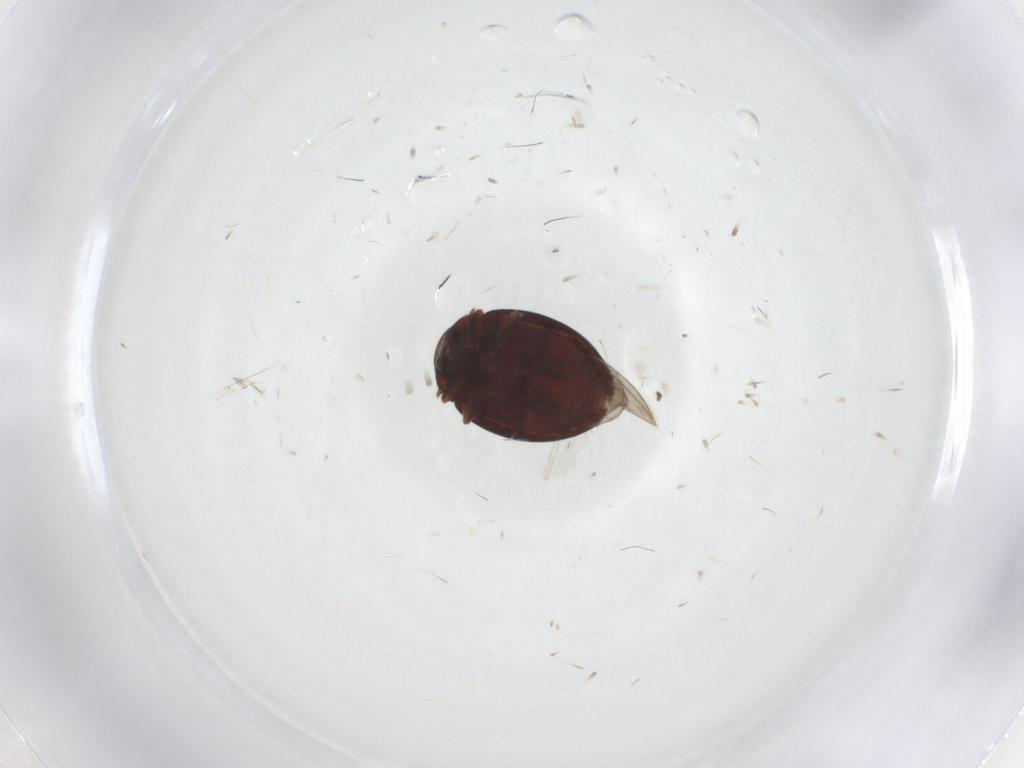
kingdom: Animalia
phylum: Arthropoda
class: Insecta
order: Coleoptera
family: Coccinellidae
